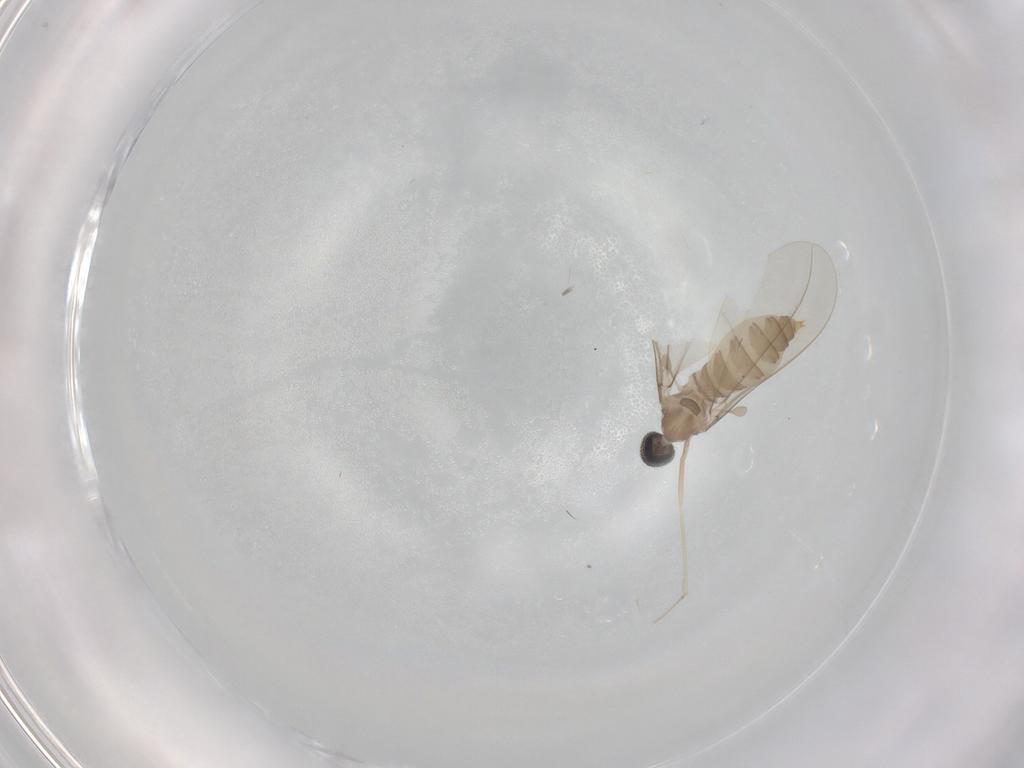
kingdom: Animalia
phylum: Arthropoda
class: Insecta
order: Diptera
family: Cecidomyiidae
